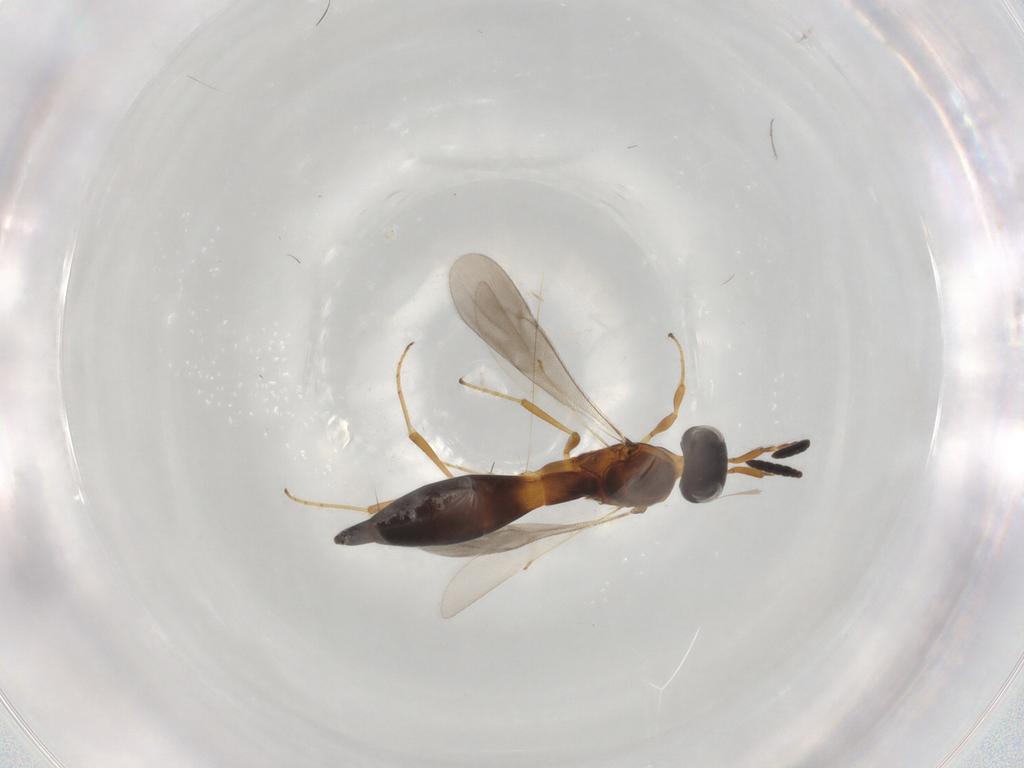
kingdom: Animalia
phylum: Arthropoda
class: Insecta
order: Hymenoptera
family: Scelionidae
